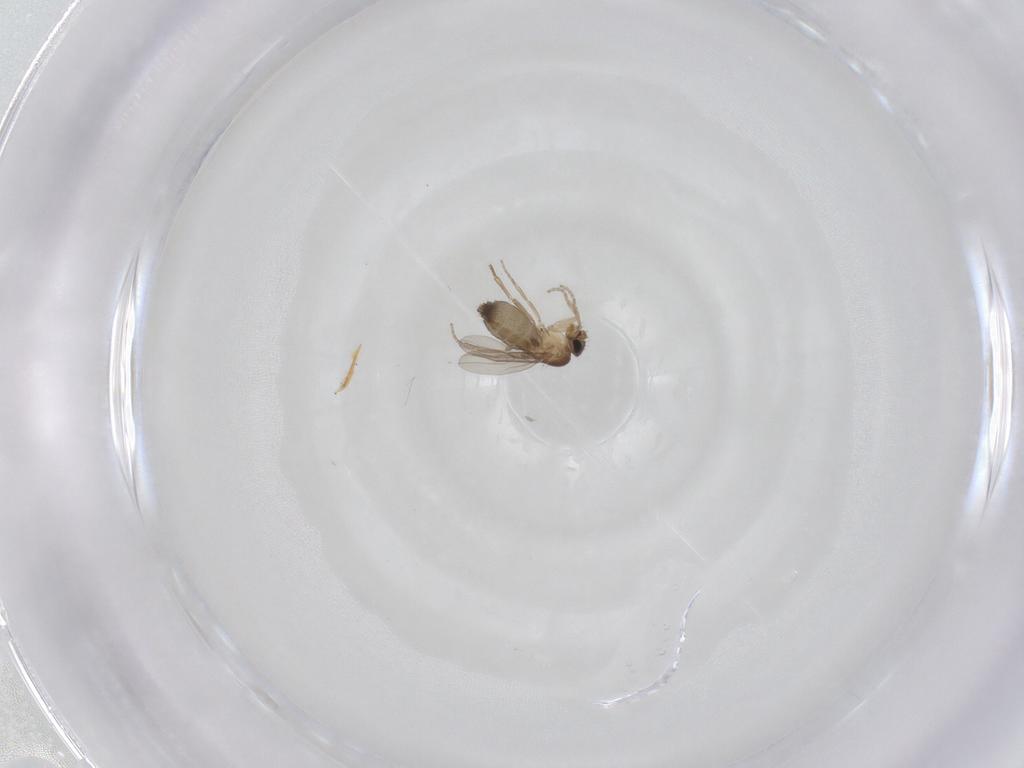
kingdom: Animalia
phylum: Arthropoda
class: Insecta
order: Diptera
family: Phoridae
